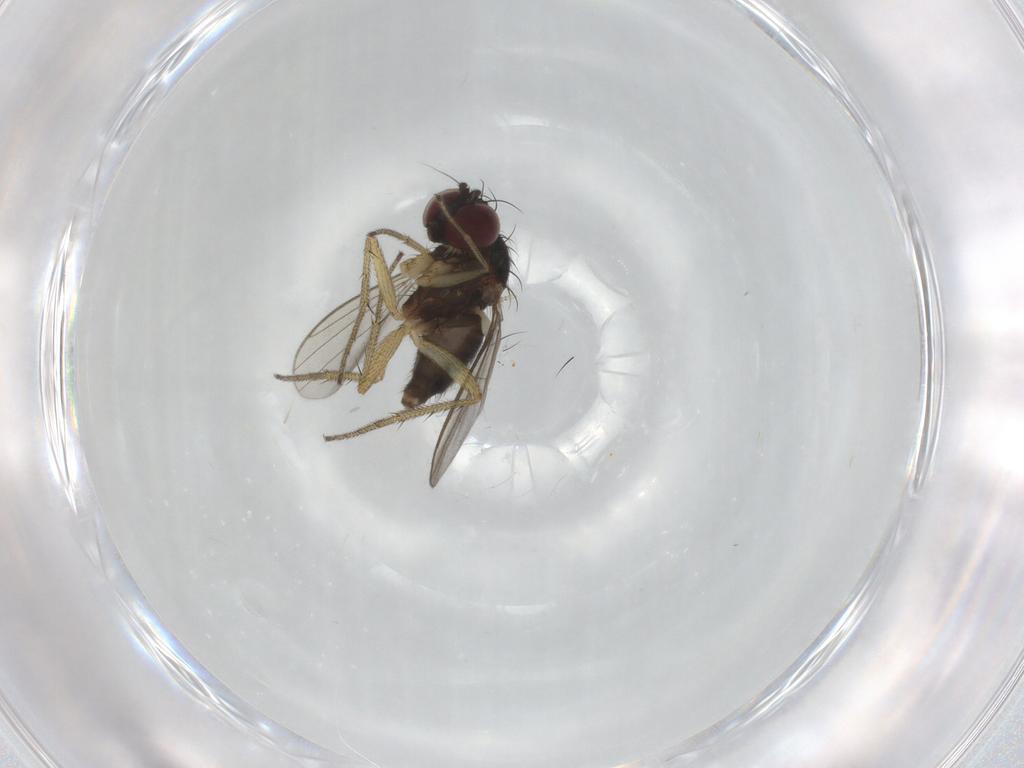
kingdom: Animalia
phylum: Arthropoda
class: Insecta
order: Diptera
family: Chironomidae
